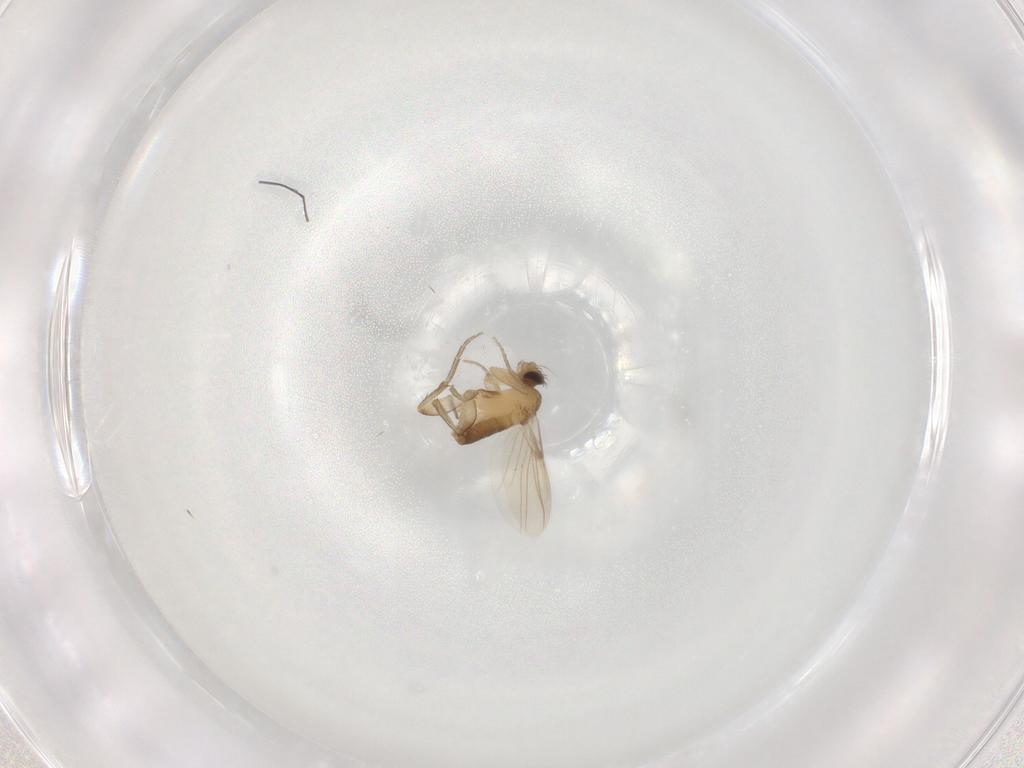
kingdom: Animalia
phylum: Arthropoda
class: Insecta
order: Diptera
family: Phoridae
